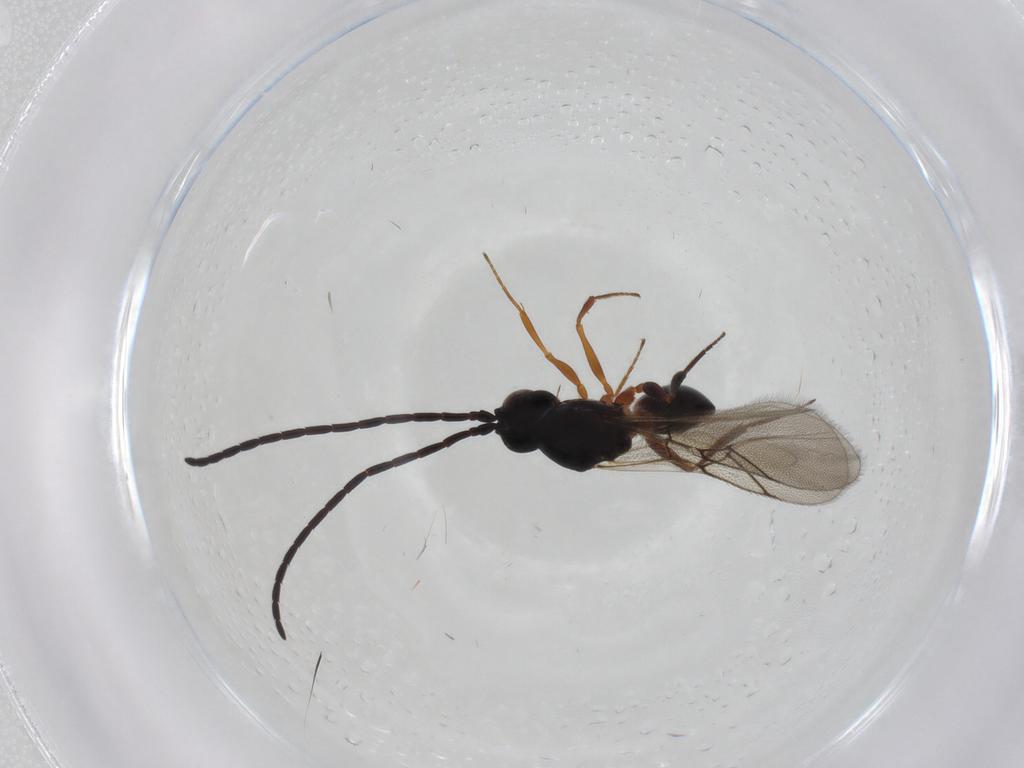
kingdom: Animalia
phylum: Arthropoda
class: Insecta
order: Hymenoptera
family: Figitidae
